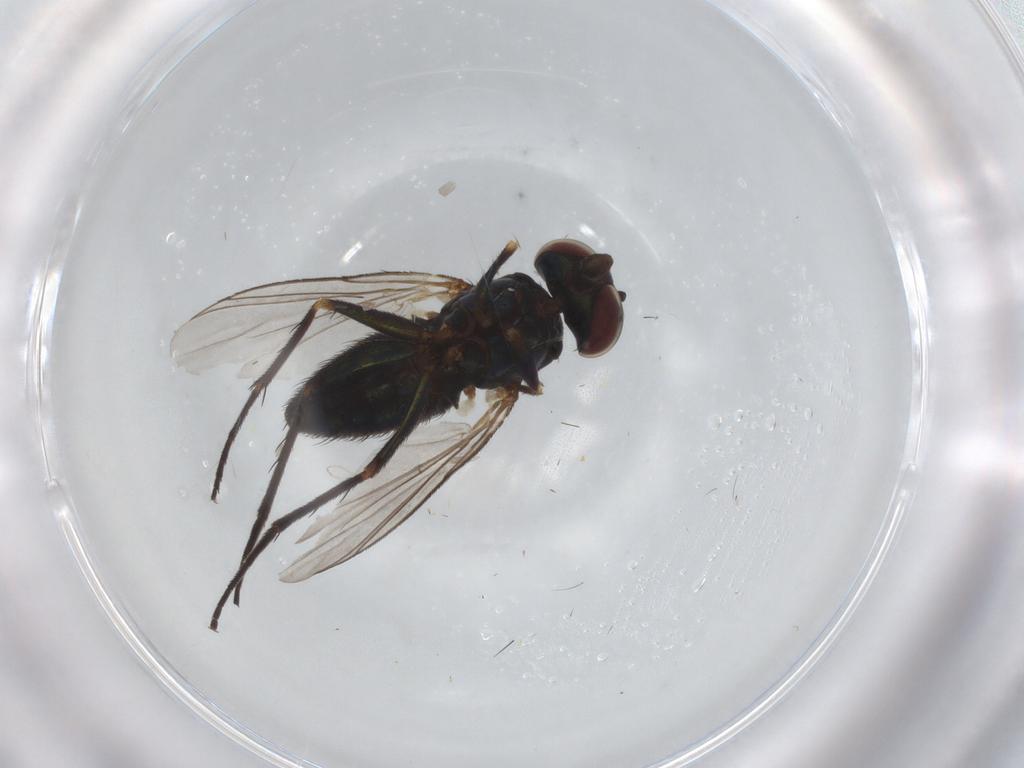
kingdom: Animalia
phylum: Arthropoda
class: Insecta
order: Diptera
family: Dolichopodidae
